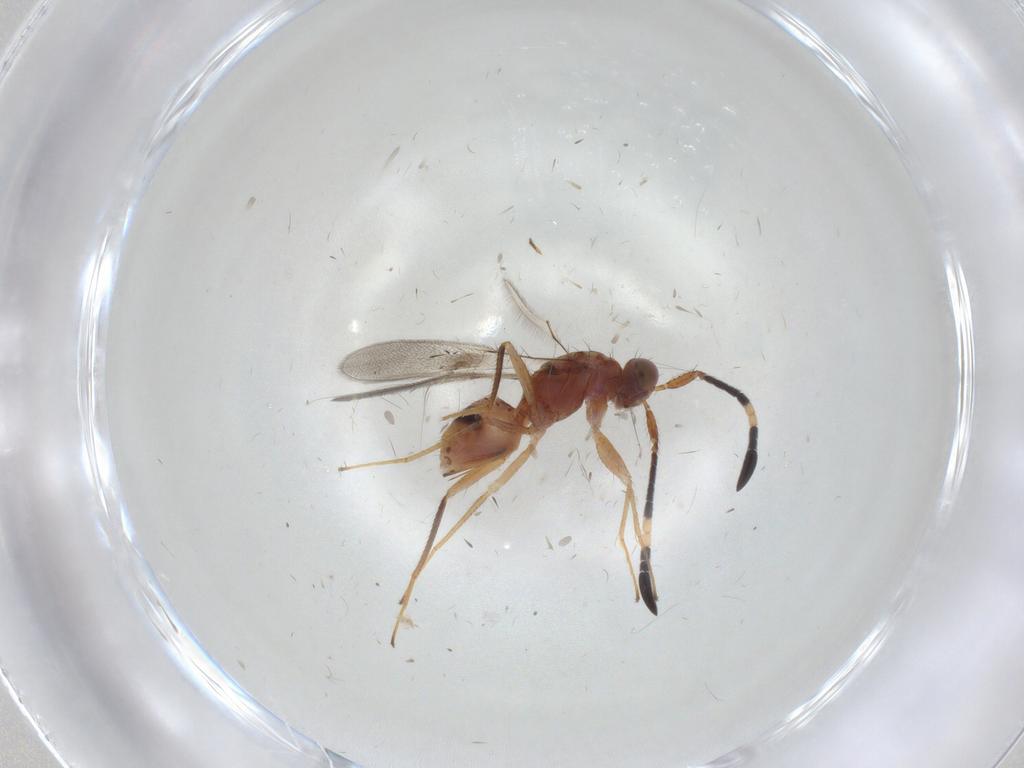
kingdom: Animalia
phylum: Arthropoda
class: Insecta
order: Hymenoptera
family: Mymaridae
